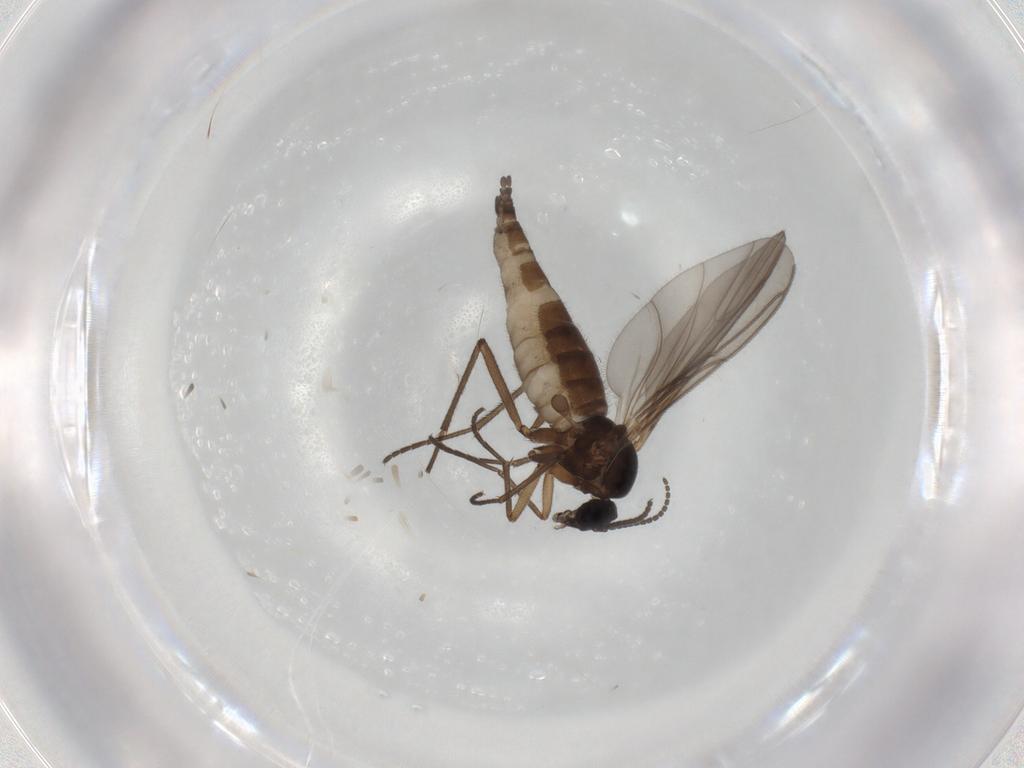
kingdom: Animalia
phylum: Arthropoda
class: Insecta
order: Diptera
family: Sciaridae
